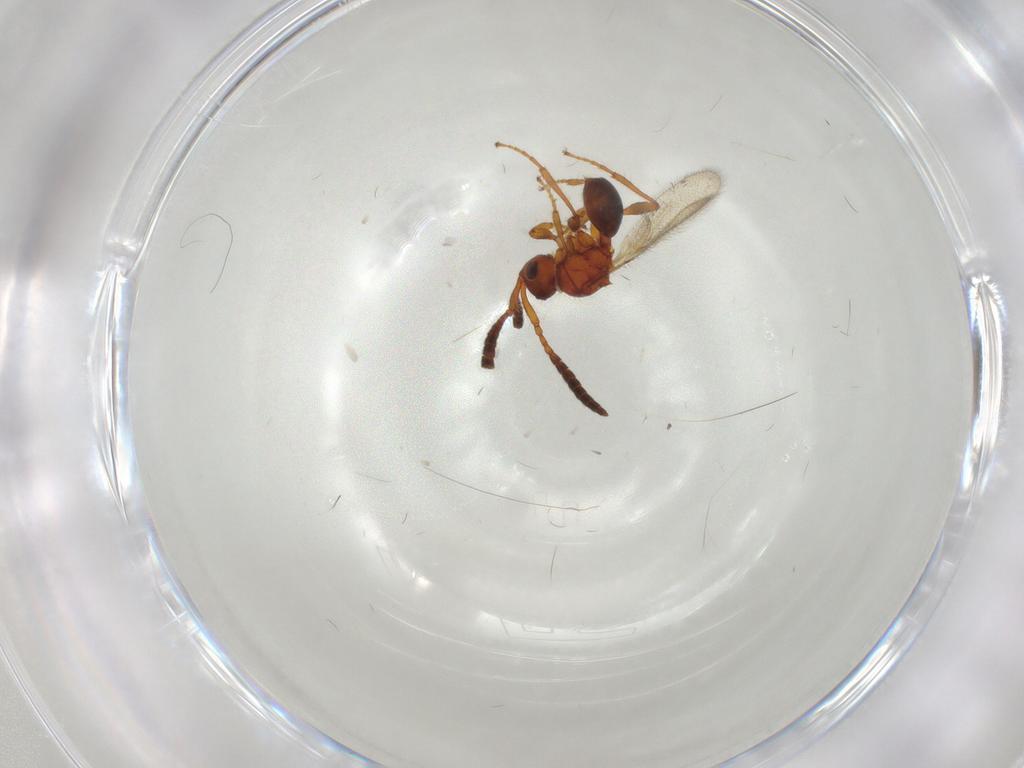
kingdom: Animalia
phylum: Arthropoda
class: Insecta
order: Hymenoptera
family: Diapriidae
